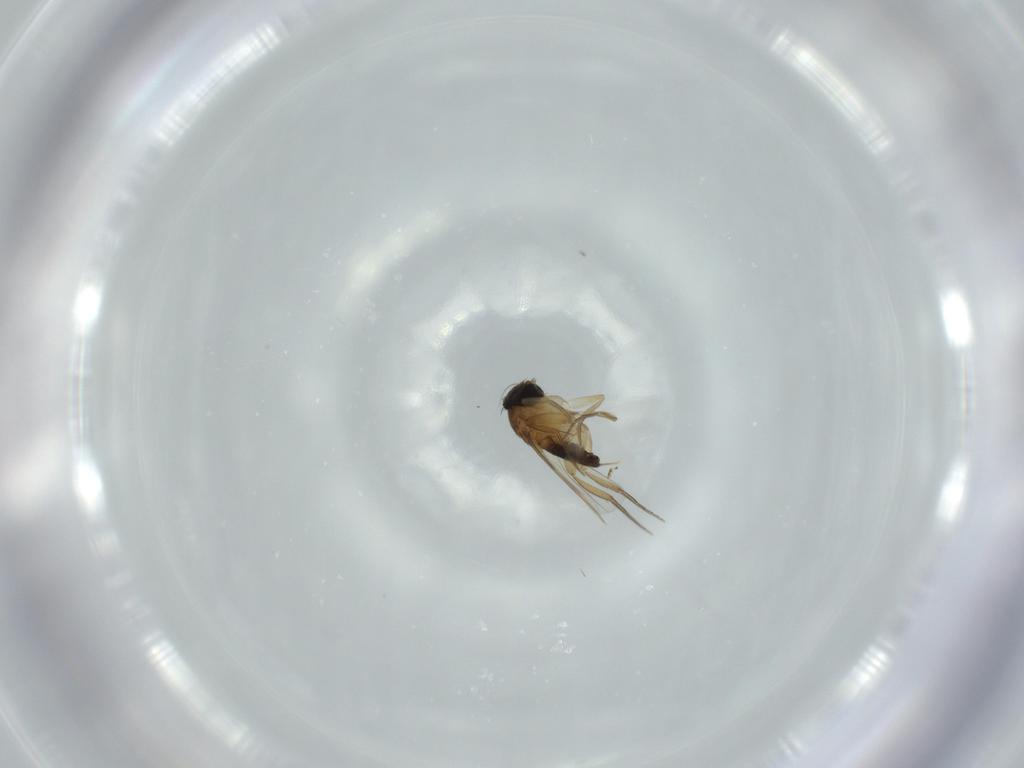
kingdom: Animalia
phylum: Arthropoda
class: Insecta
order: Diptera
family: Phoridae
